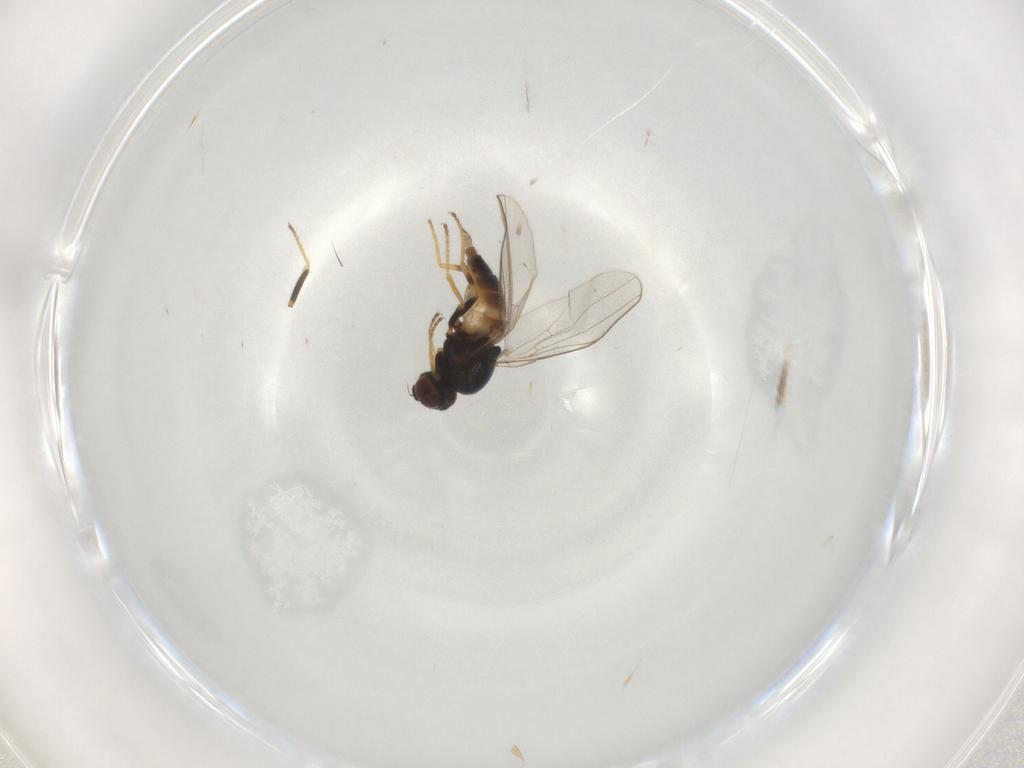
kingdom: Animalia
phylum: Arthropoda
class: Insecta
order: Diptera
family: Chloropidae
